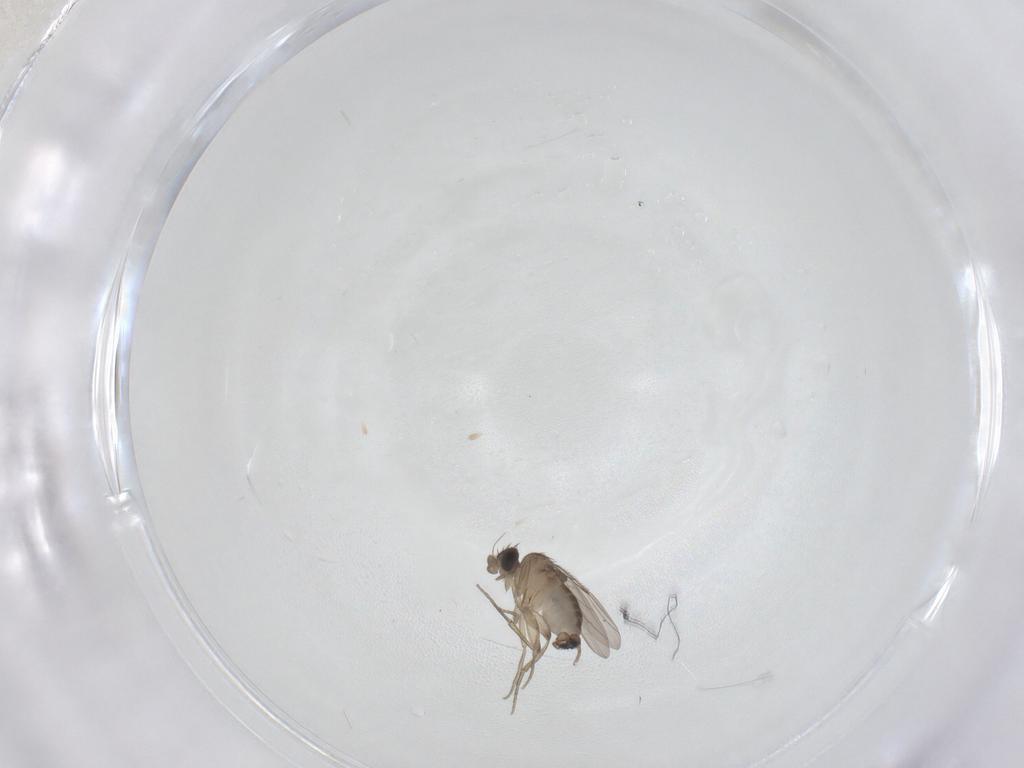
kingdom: Animalia
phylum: Arthropoda
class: Insecta
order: Diptera
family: Phoridae
